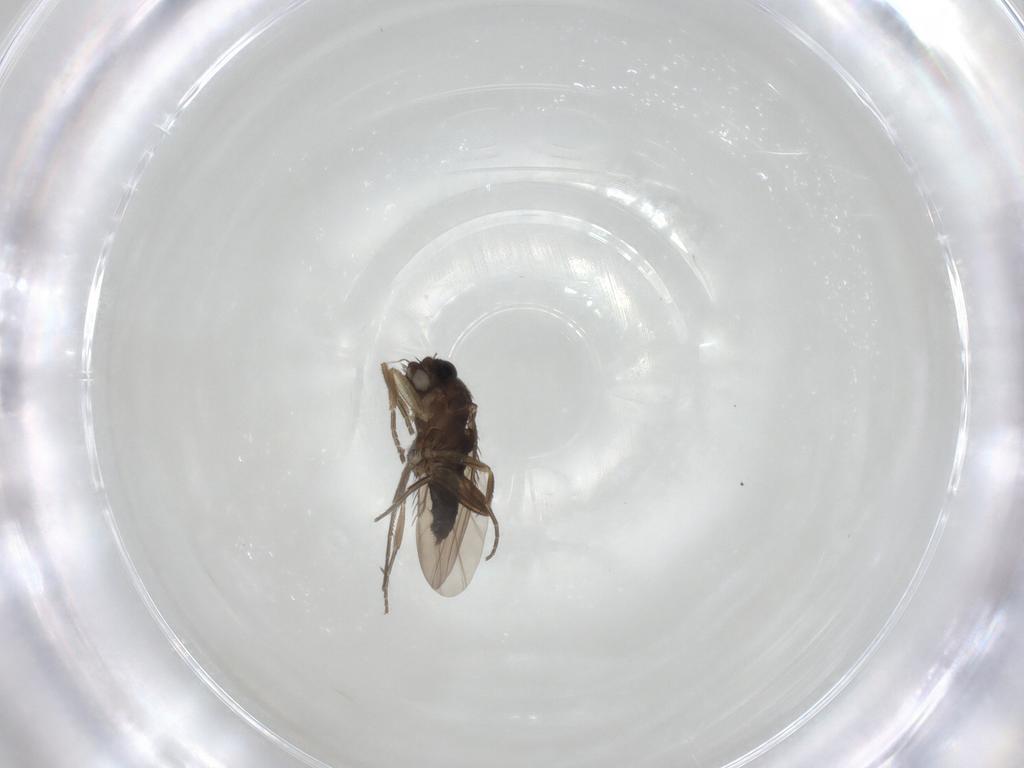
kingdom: Animalia
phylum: Arthropoda
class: Insecta
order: Diptera
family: Phoridae
